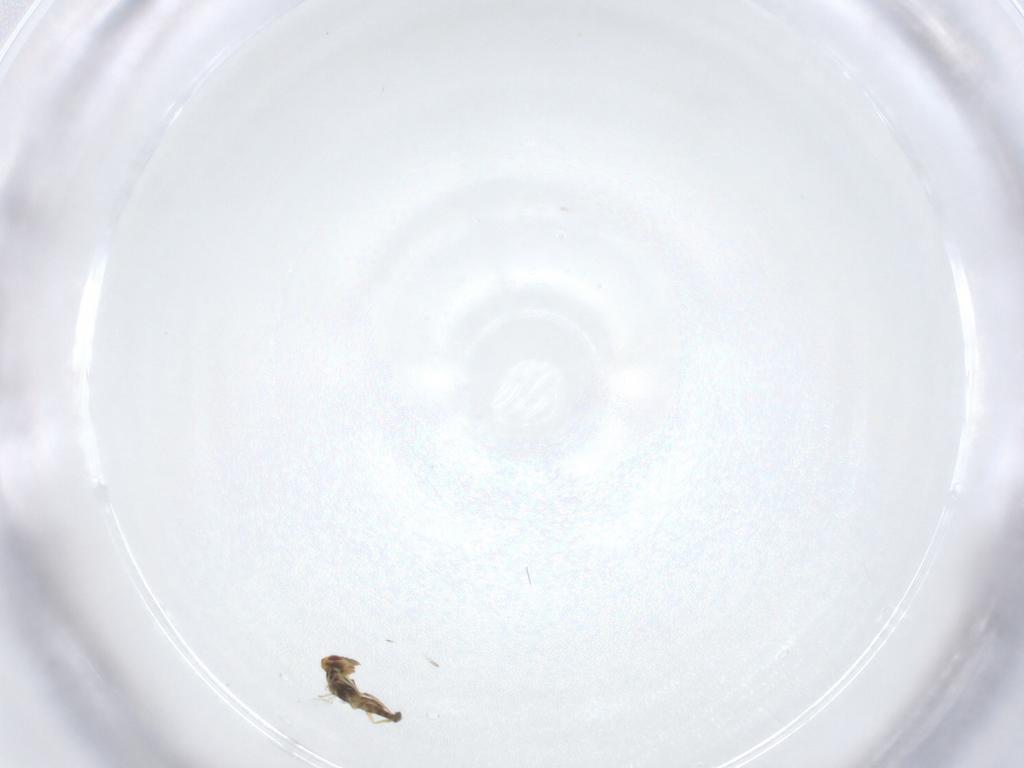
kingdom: Animalia
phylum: Arthropoda
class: Insecta
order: Hymenoptera
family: Eulophidae
